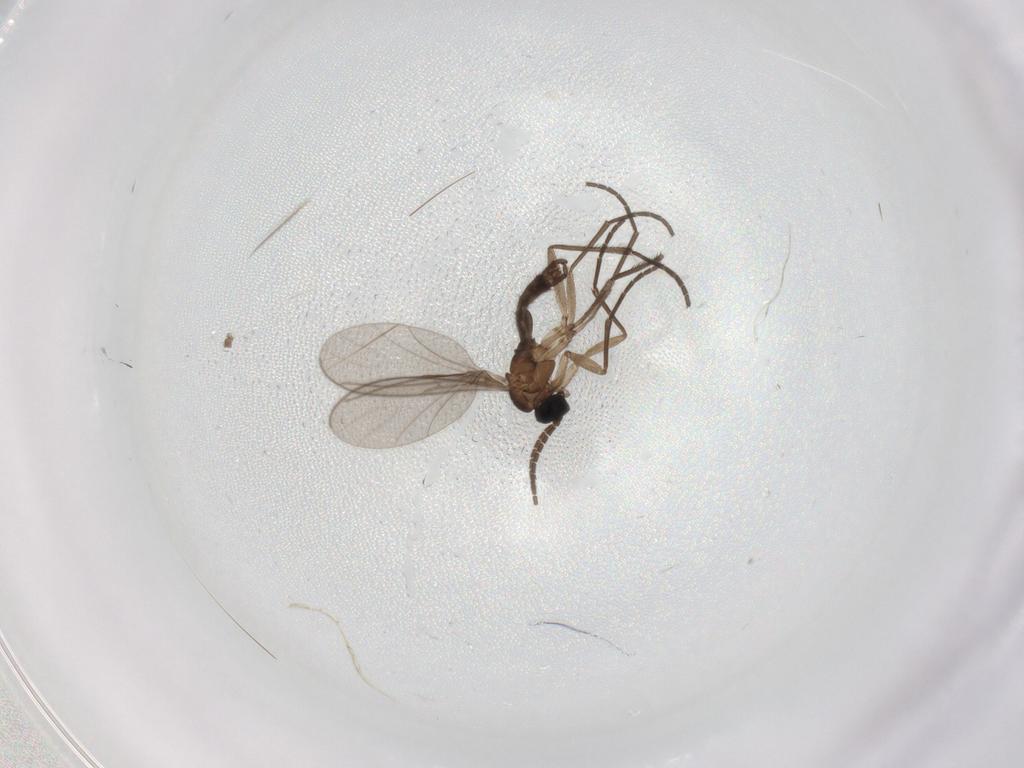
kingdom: Animalia
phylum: Arthropoda
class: Insecta
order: Diptera
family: Sciaridae
